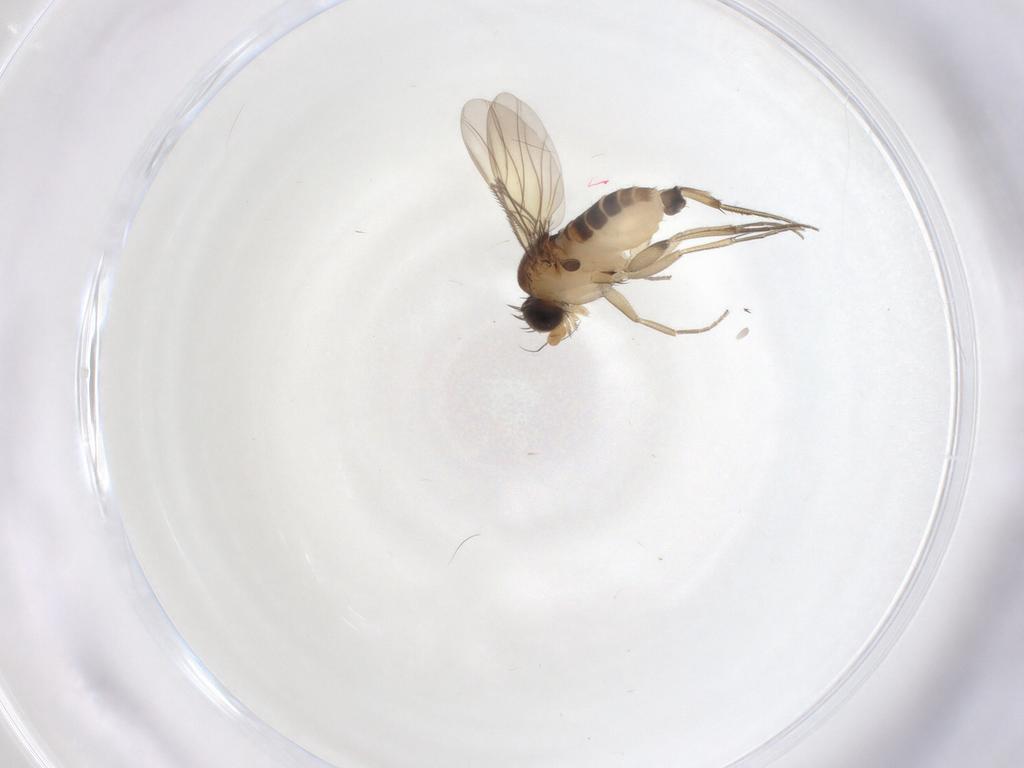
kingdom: Animalia
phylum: Arthropoda
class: Insecta
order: Diptera
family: Phoridae
